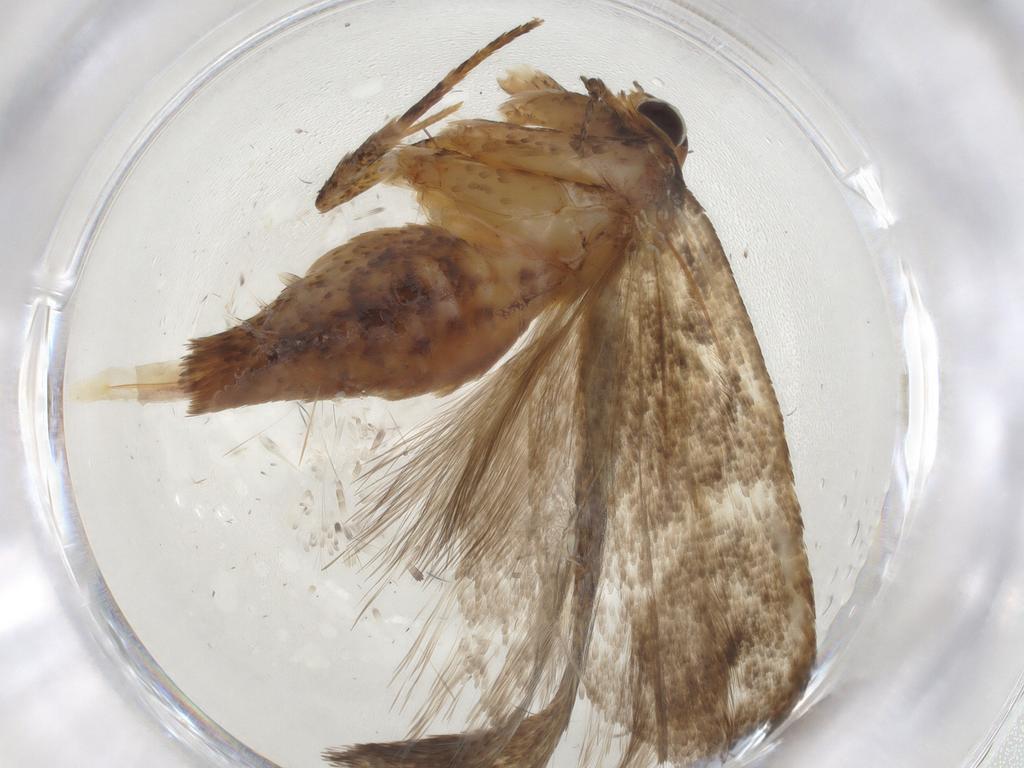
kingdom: Animalia
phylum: Arthropoda
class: Insecta
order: Lepidoptera
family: Gelechiidae
